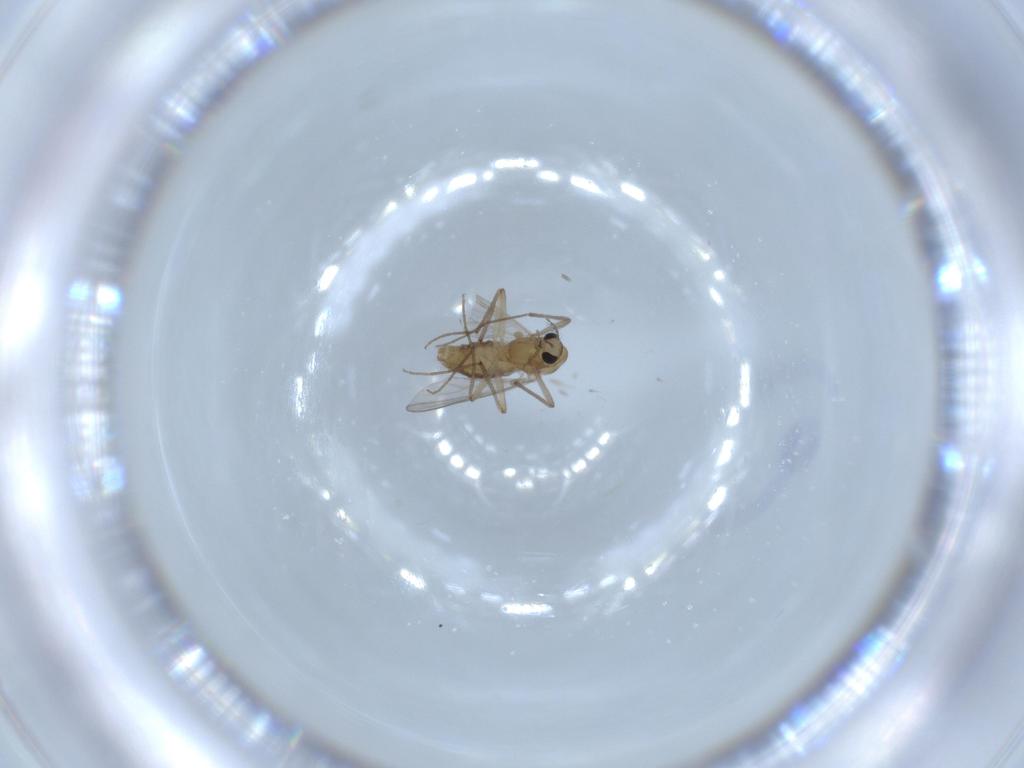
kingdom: Animalia
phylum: Arthropoda
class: Insecta
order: Diptera
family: Chironomidae
